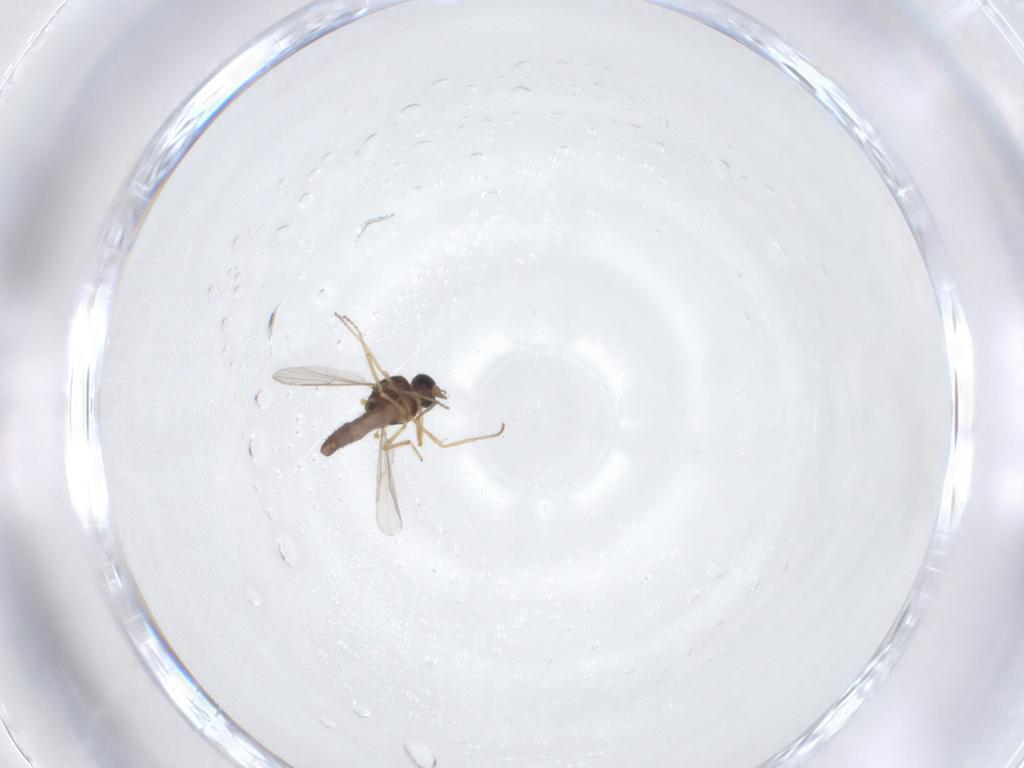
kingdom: Animalia
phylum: Arthropoda
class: Insecta
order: Diptera
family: Ceratopogonidae
